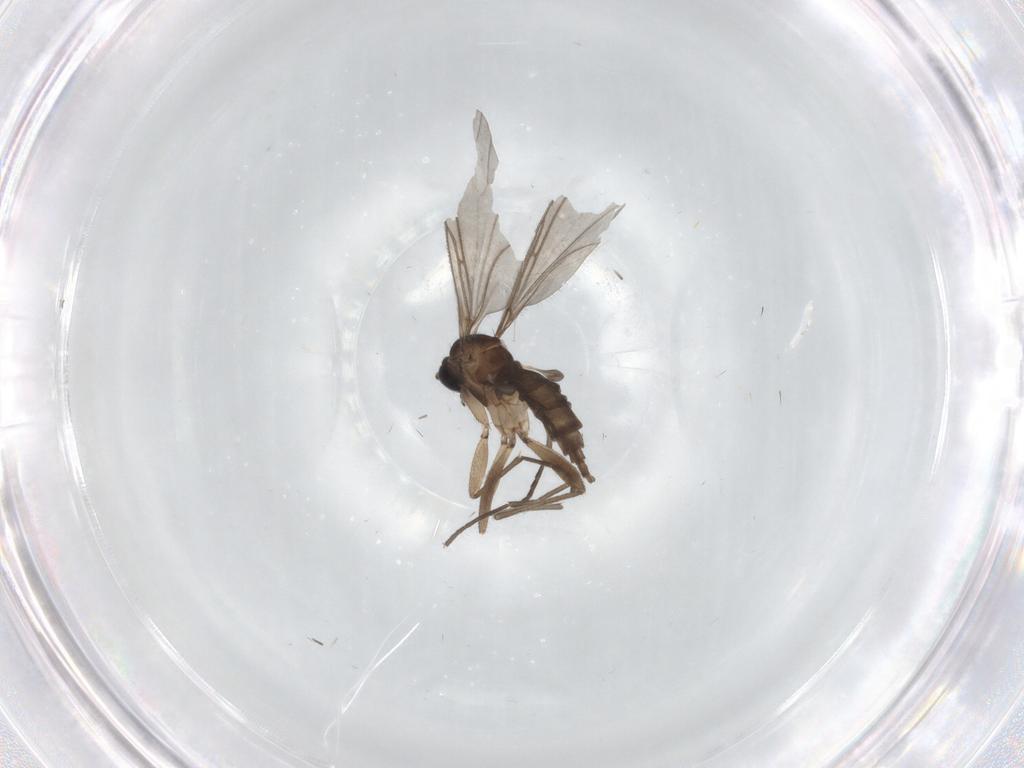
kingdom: Animalia
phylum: Arthropoda
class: Insecta
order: Diptera
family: Sciaridae
